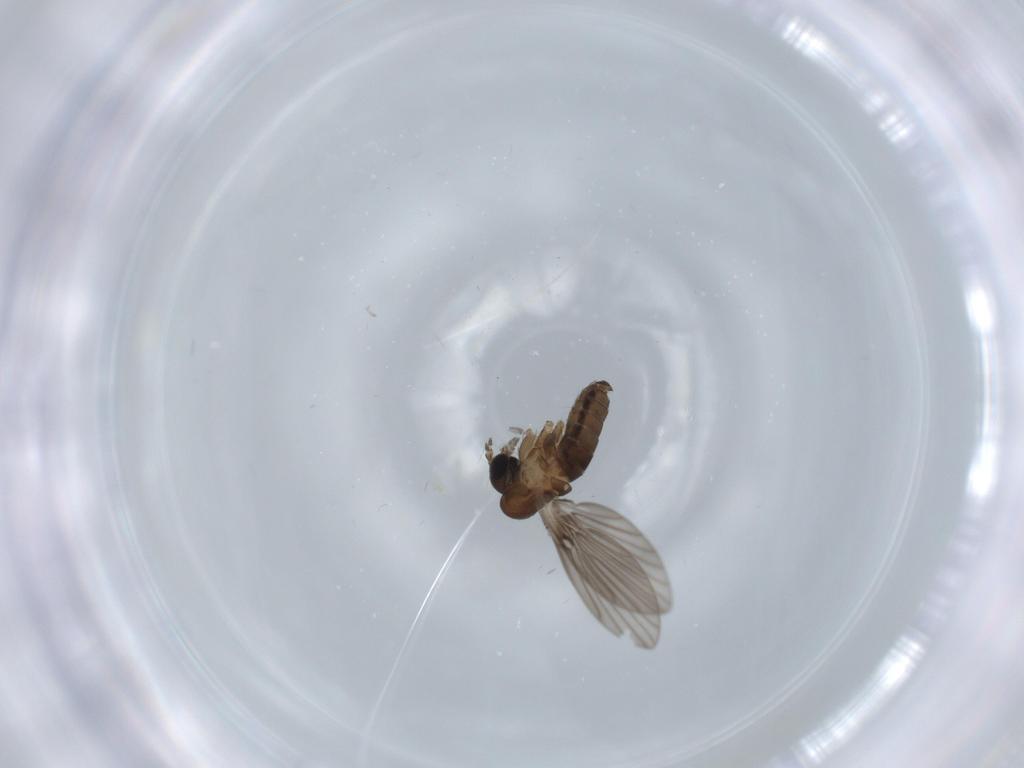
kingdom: Animalia
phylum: Arthropoda
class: Insecta
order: Diptera
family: Psychodidae
